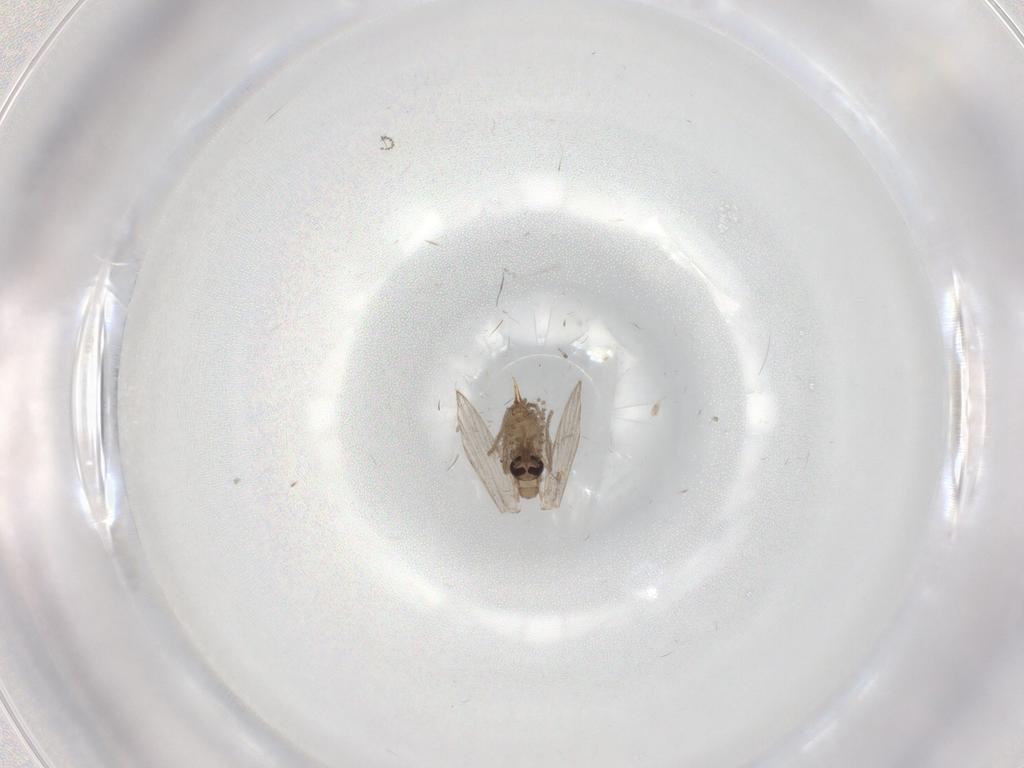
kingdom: Animalia
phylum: Arthropoda
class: Insecta
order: Diptera
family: Psychodidae
